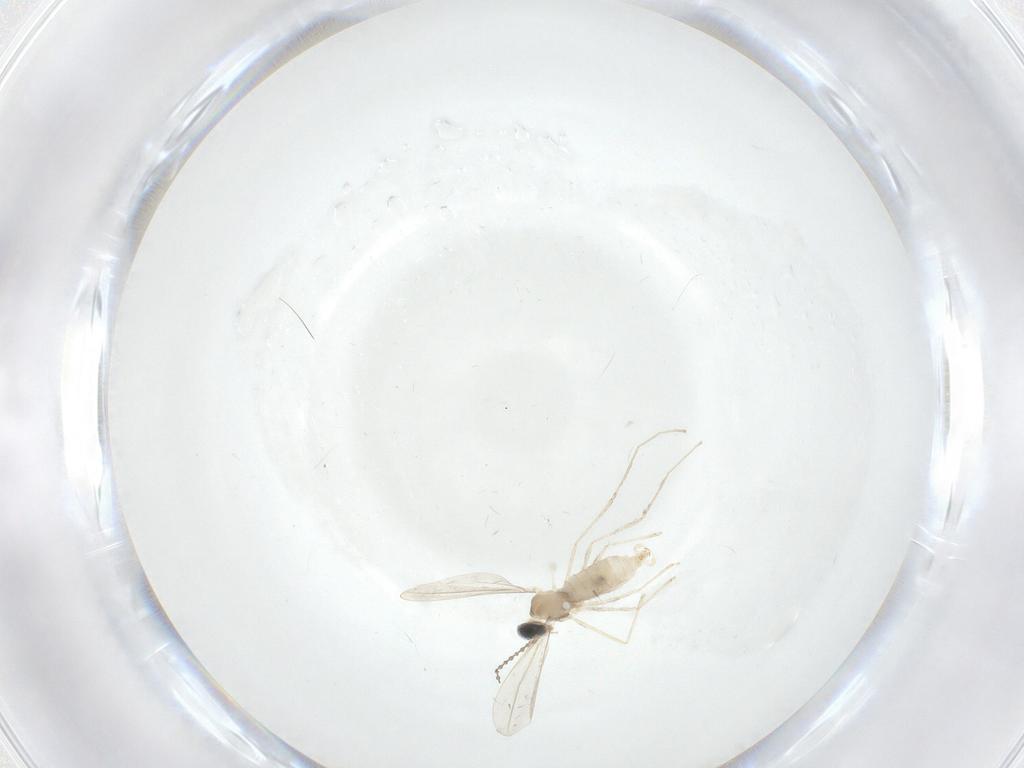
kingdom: Animalia
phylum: Arthropoda
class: Insecta
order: Diptera
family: Cecidomyiidae
